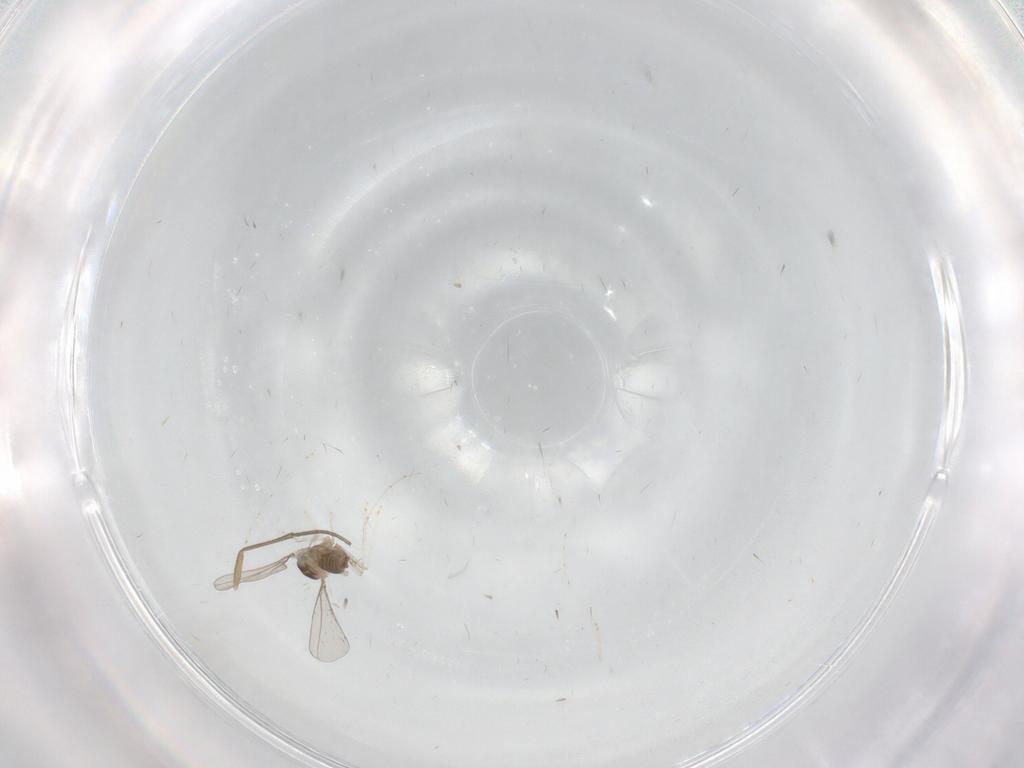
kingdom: Animalia
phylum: Arthropoda
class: Insecta
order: Diptera
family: Cecidomyiidae
